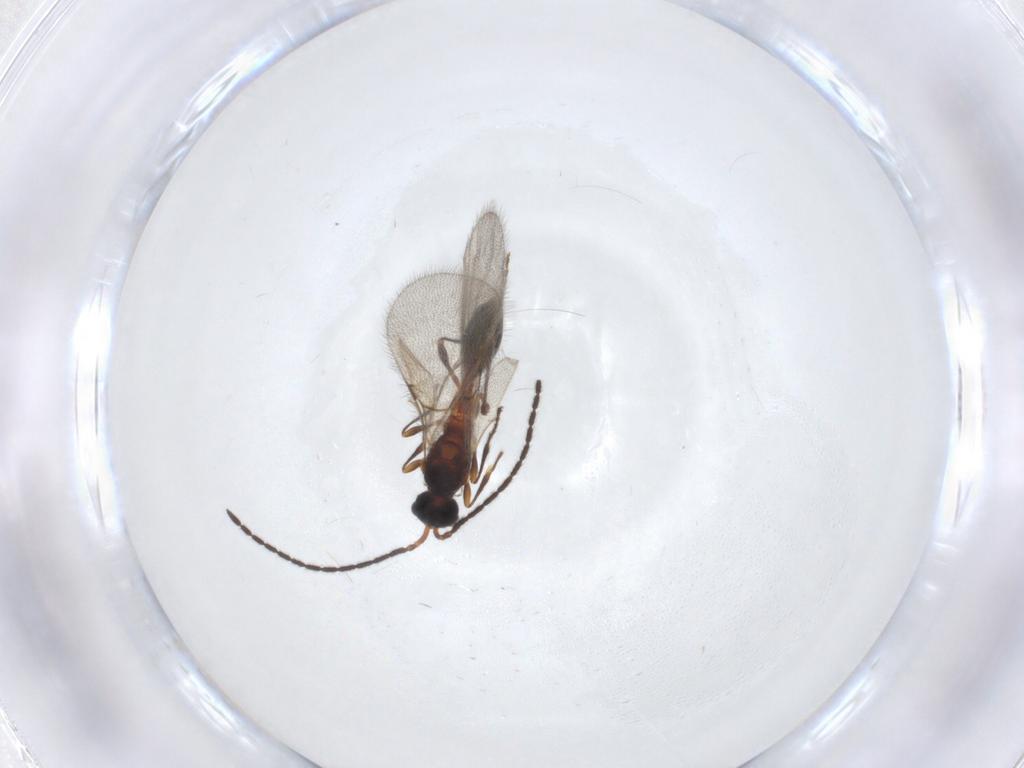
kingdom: Animalia
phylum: Arthropoda
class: Insecta
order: Hymenoptera
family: Diapriidae
